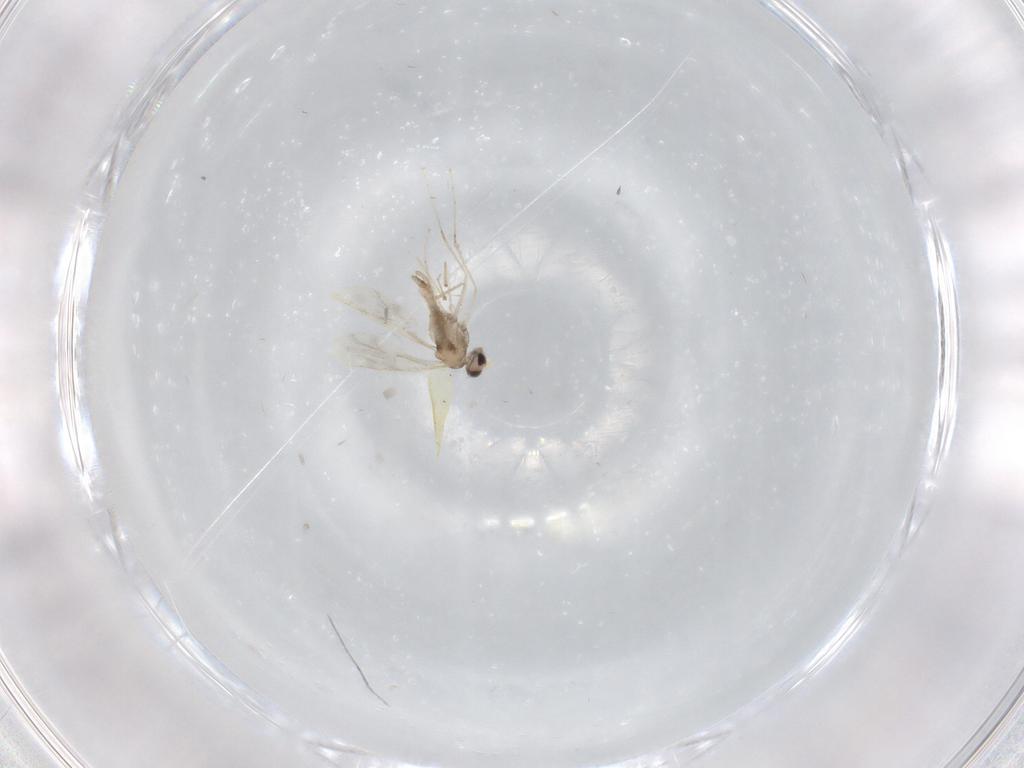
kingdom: Animalia
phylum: Arthropoda
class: Insecta
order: Diptera
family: Cecidomyiidae
